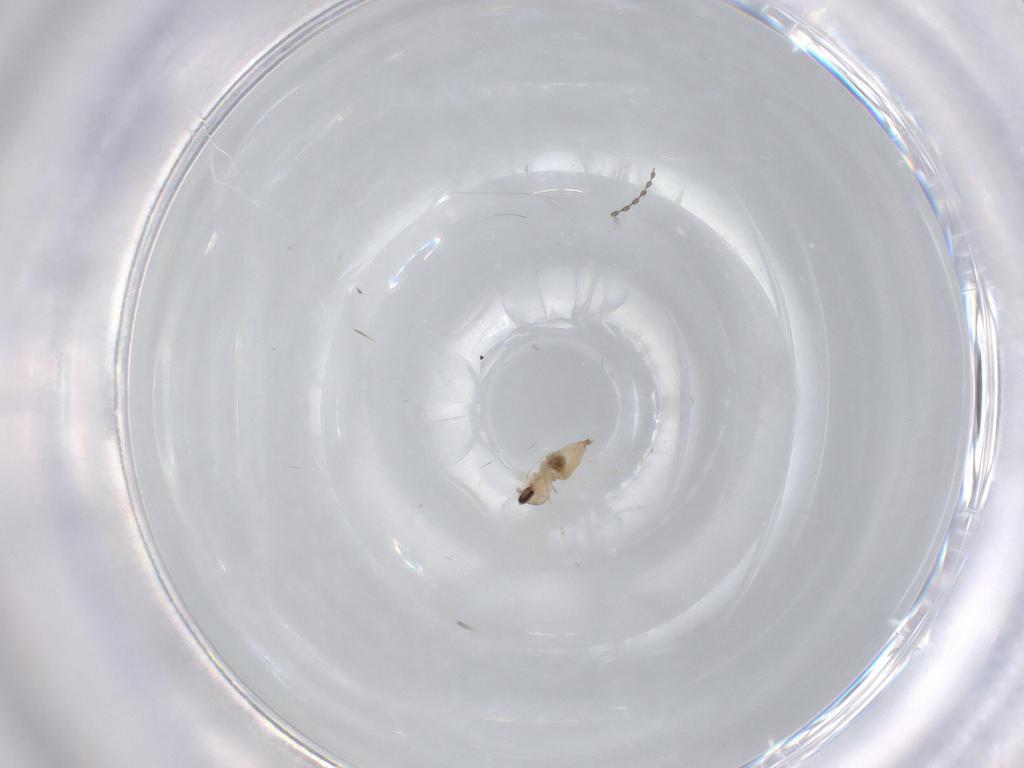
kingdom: Animalia
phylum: Arthropoda
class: Insecta
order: Diptera
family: Cecidomyiidae
